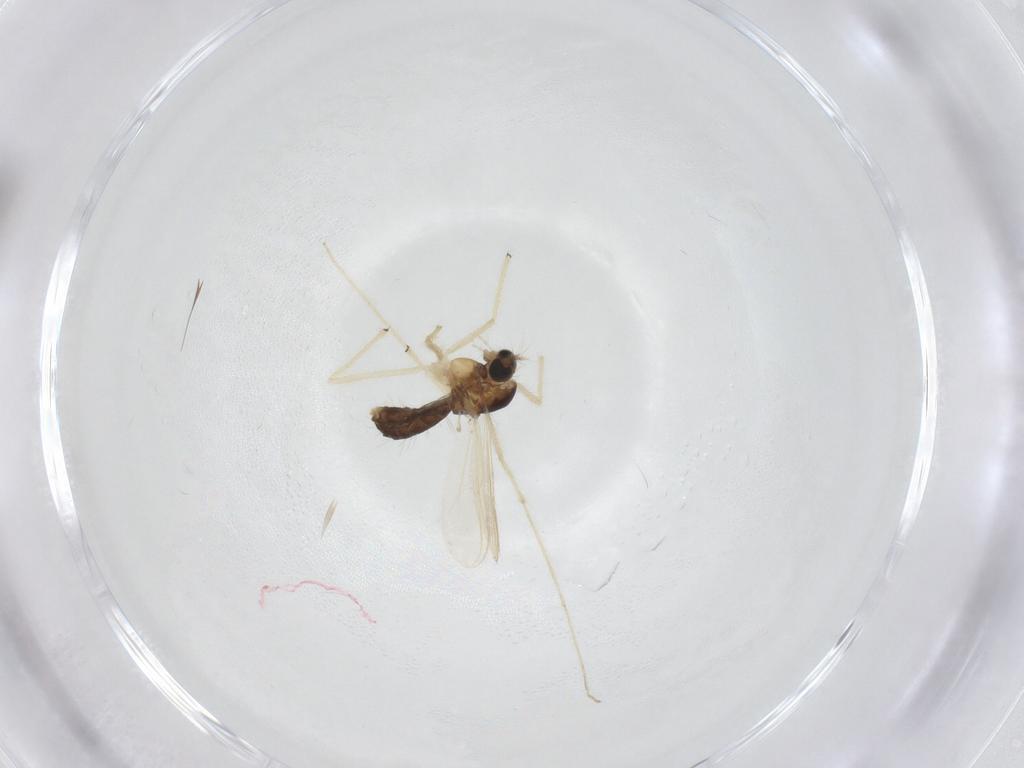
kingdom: Animalia
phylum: Arthropoda
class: Insecta
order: Diptera
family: Chironomidae
